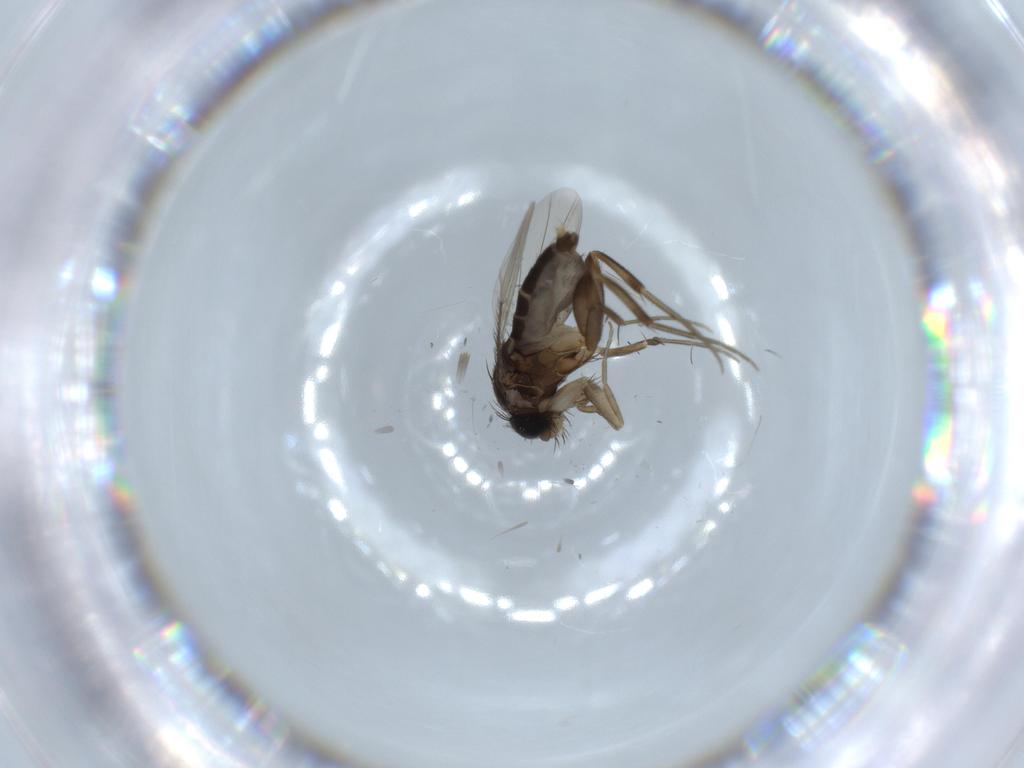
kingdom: Animalia
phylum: Arthropoda
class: Insecta
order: Diptera
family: Phoridae
